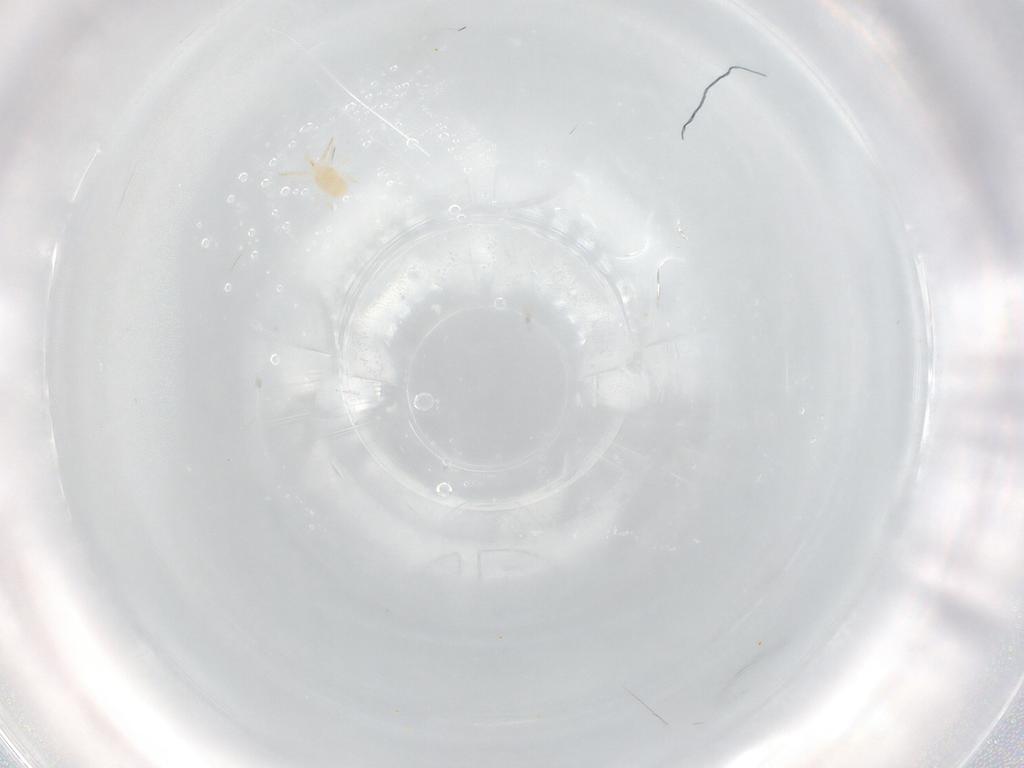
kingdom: Animalia
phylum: Arthropoda
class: Arachnida
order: Mesostigmata
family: Phytoseiidae
